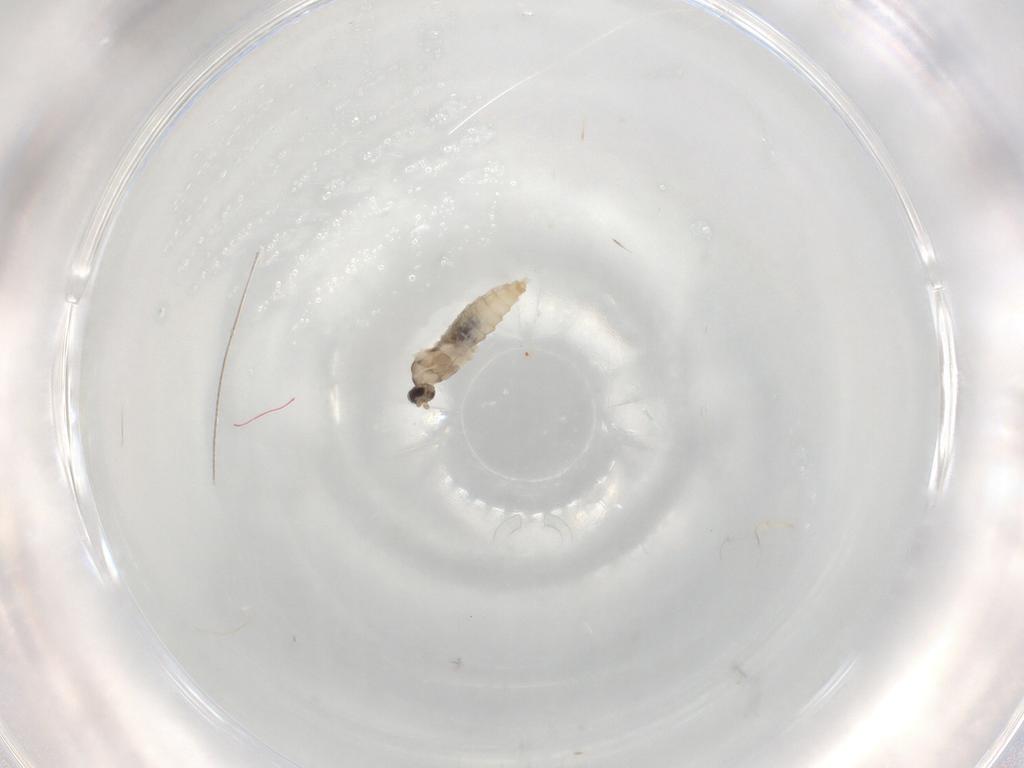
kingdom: Animalia
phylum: Arthropoda
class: Insecta
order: Diptera
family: Cecidomyiidae
